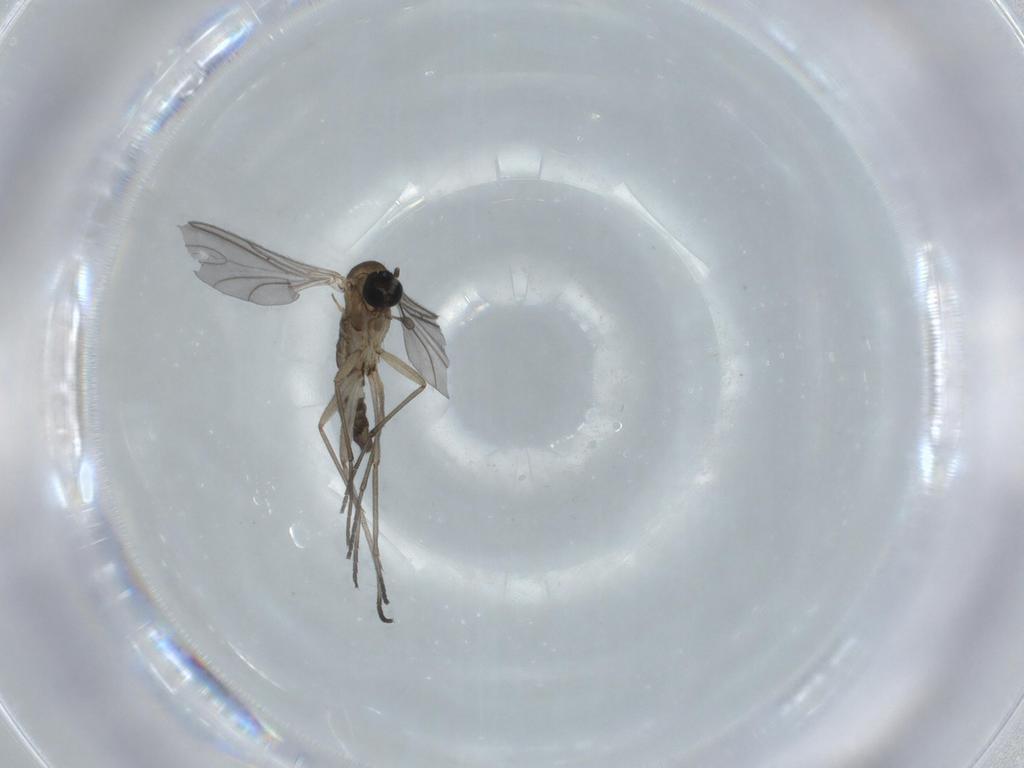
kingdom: Animalia
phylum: Arthropoda
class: Insecta
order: Diptera
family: Sciaridae
